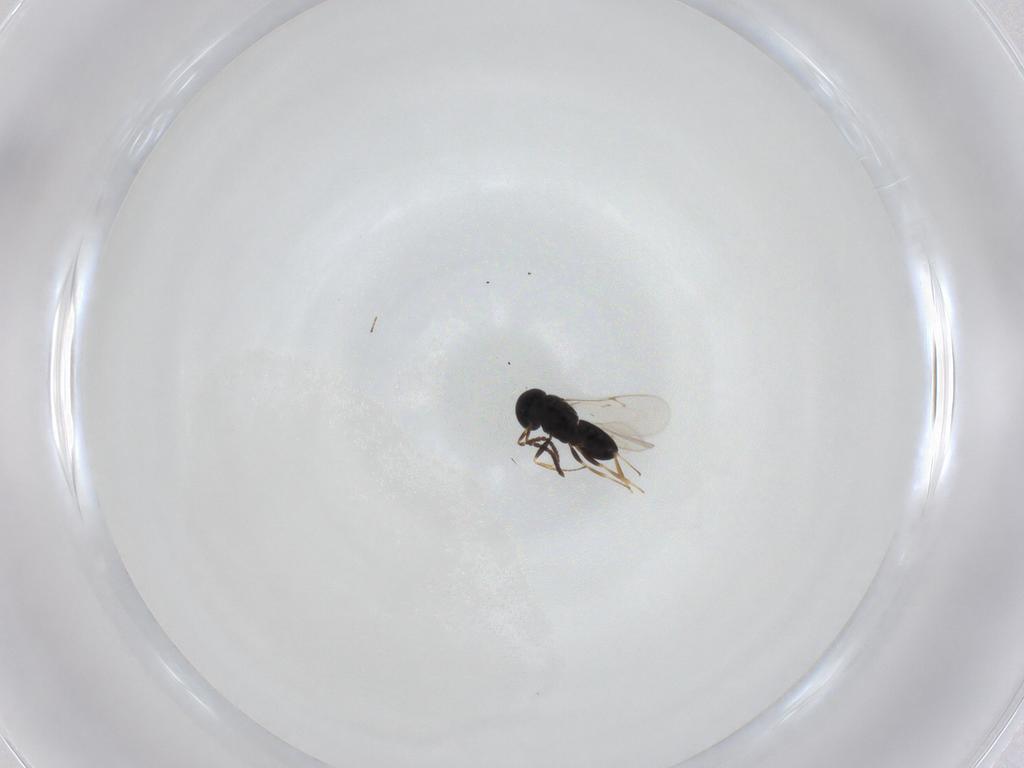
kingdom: Animalia
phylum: Arthropoda
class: Insecta
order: Hymenoptera
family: Scelionidae
